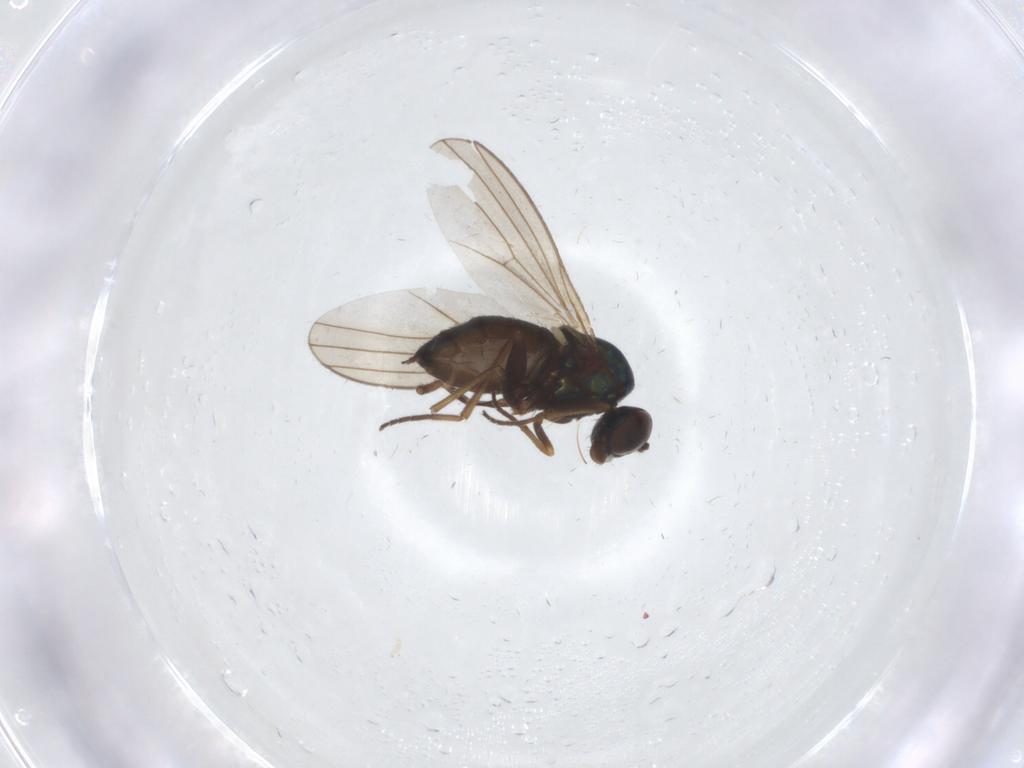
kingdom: Animalia
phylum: Arthropoda
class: Insecta
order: Diptera
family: Dolichopodidae
